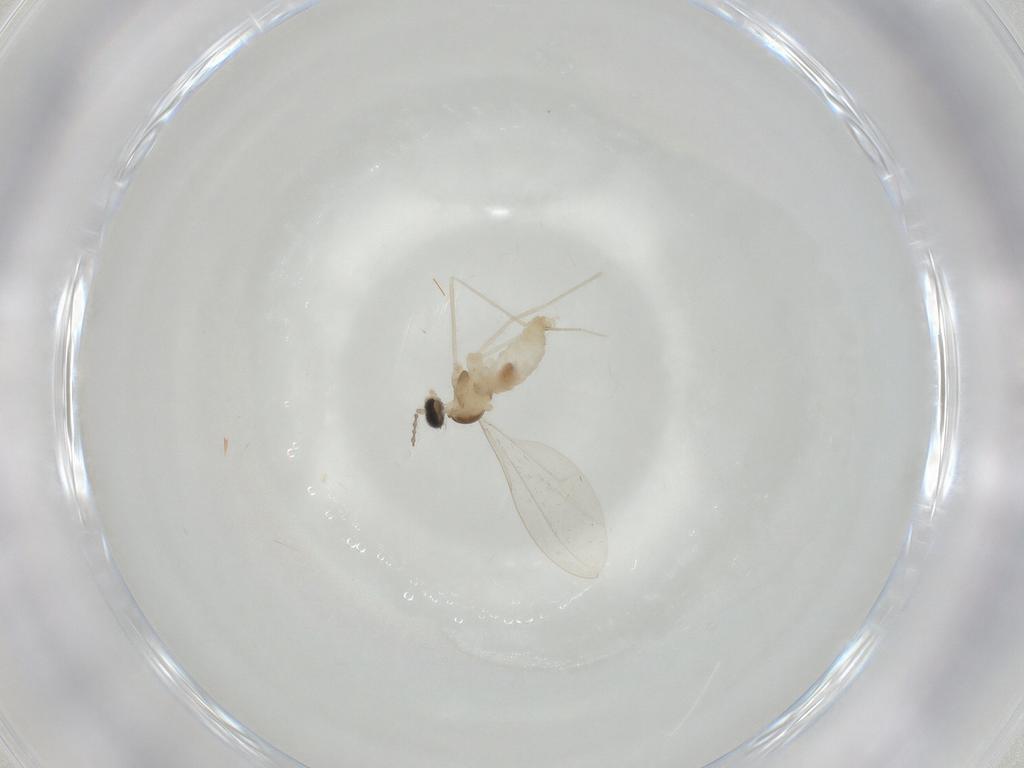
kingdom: Animalia
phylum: Arthropoda
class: Insecta
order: Diptera
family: Cecidomyiidae
